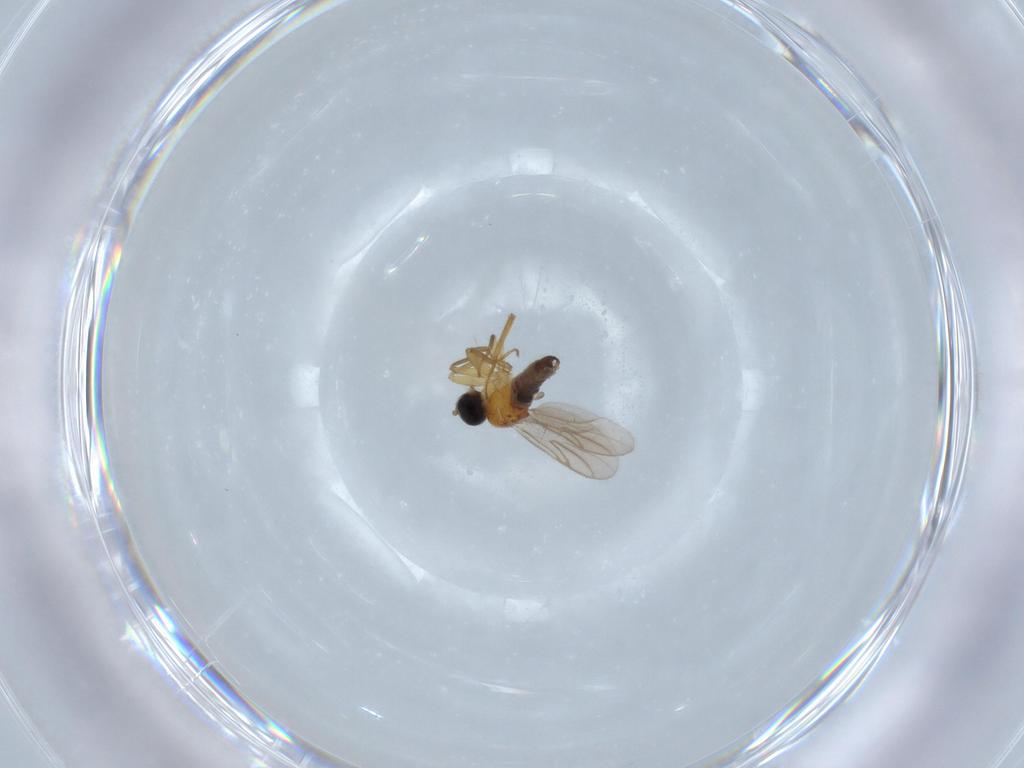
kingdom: Animalia
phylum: Arthropoda
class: Insecta
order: Diptera
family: Hybotidae
